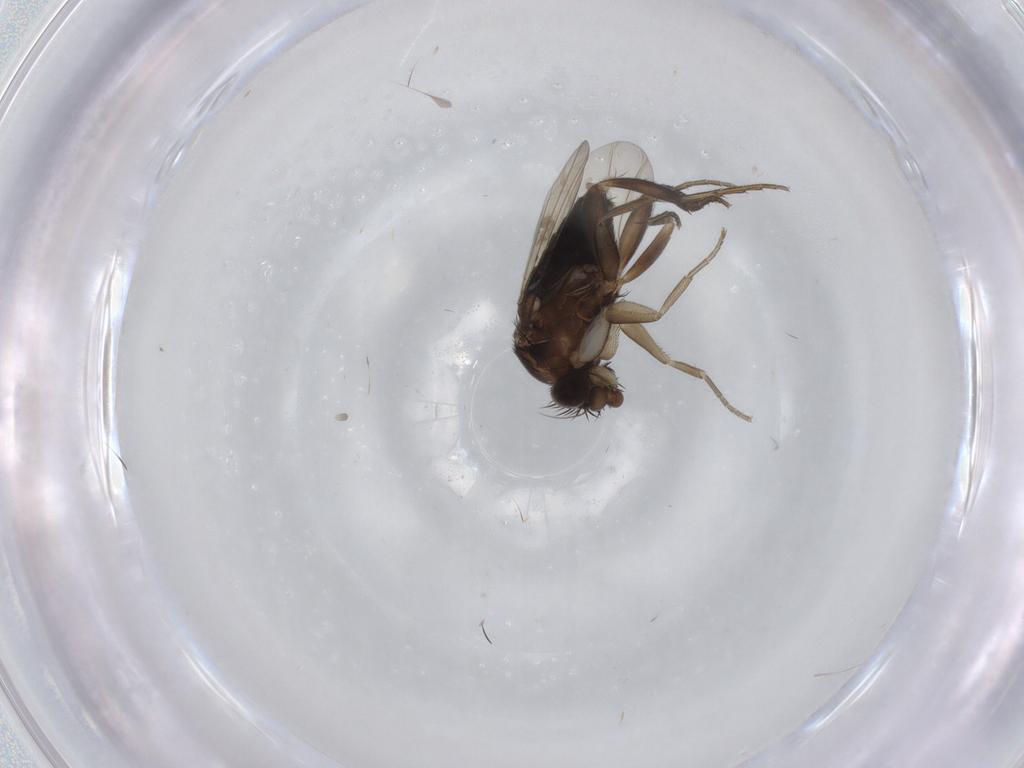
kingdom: Animalia
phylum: Arthropoda
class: Insecta
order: Diptera
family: Phoridae
